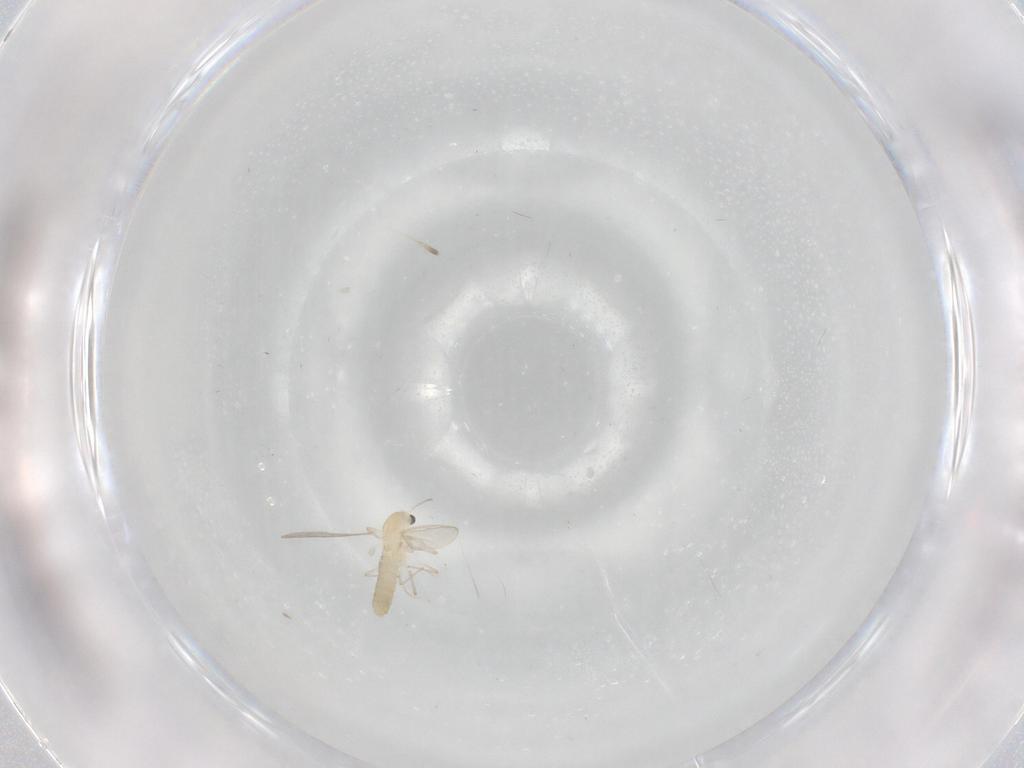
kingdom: Animalia
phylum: Arthropoda
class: Insecta
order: Diptera
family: Chironomidae
